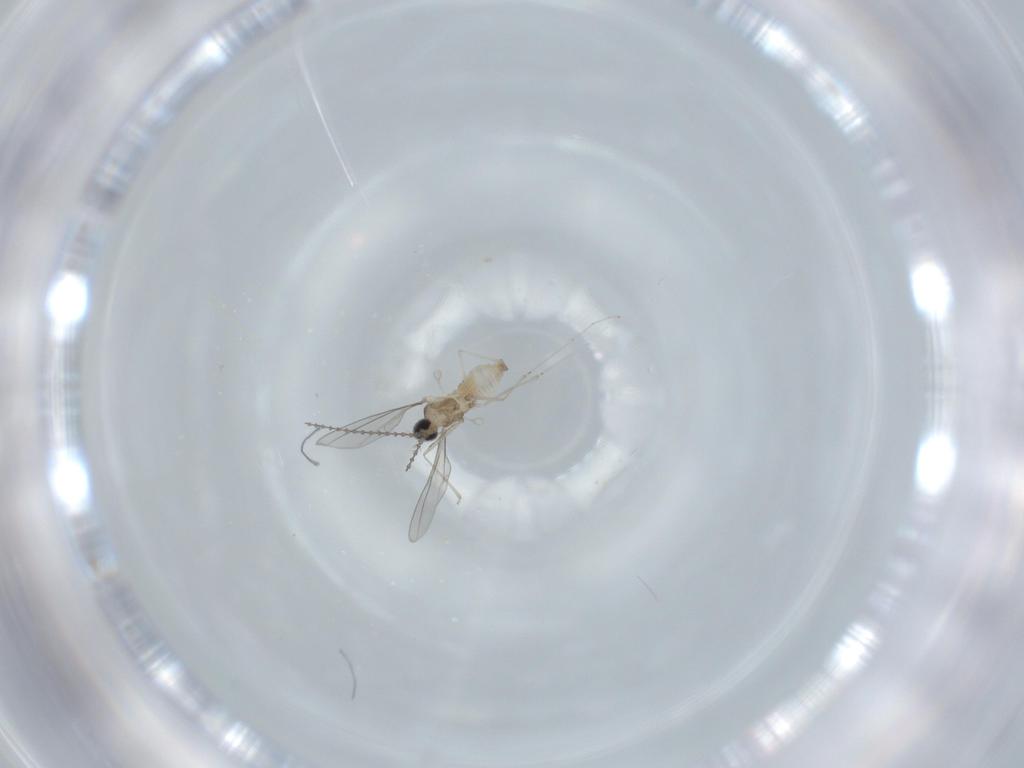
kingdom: Animalia
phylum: Arthropoda
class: Insecta
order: Diptera
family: Cecidomyiidae
